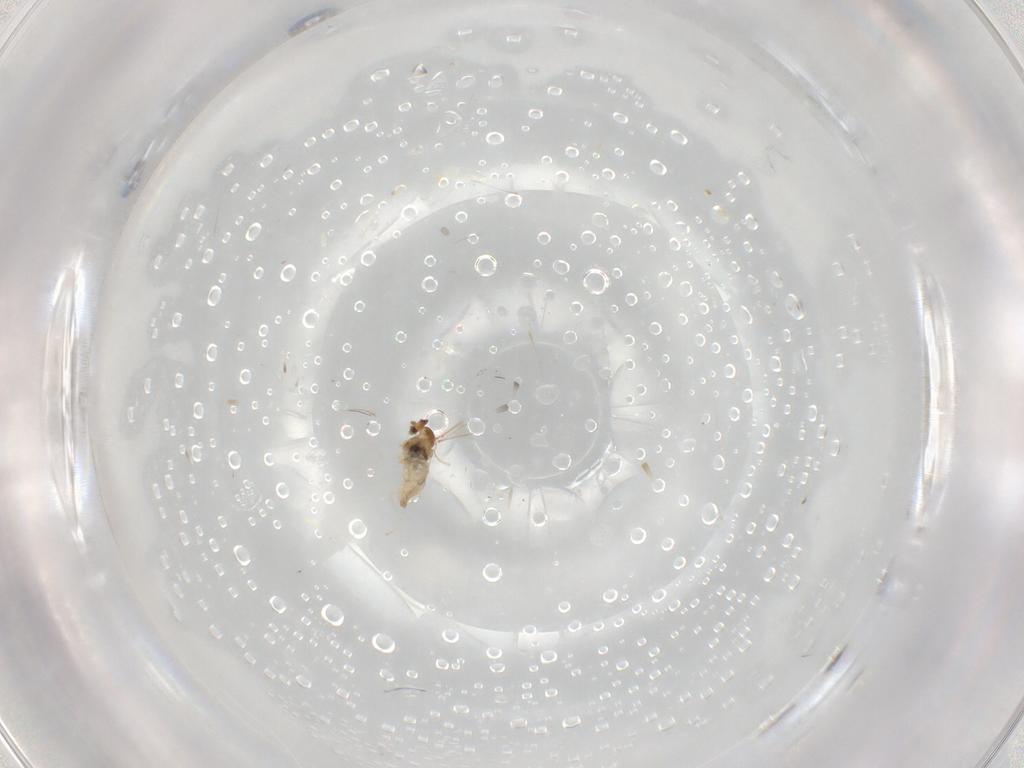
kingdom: Animalia
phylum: Arthropoda
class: Insecta
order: Diptera
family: Cecidomyiidae
